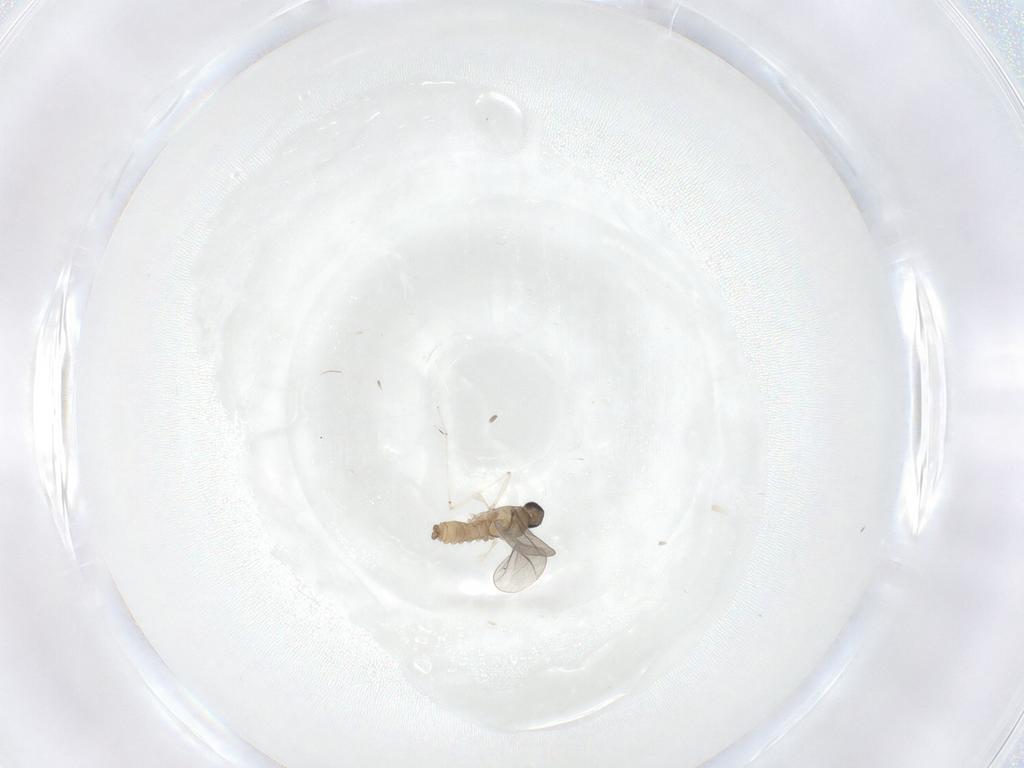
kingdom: Animalia
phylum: Arthropoda
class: Insecta
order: Diptera
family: Cecidomyiidae
